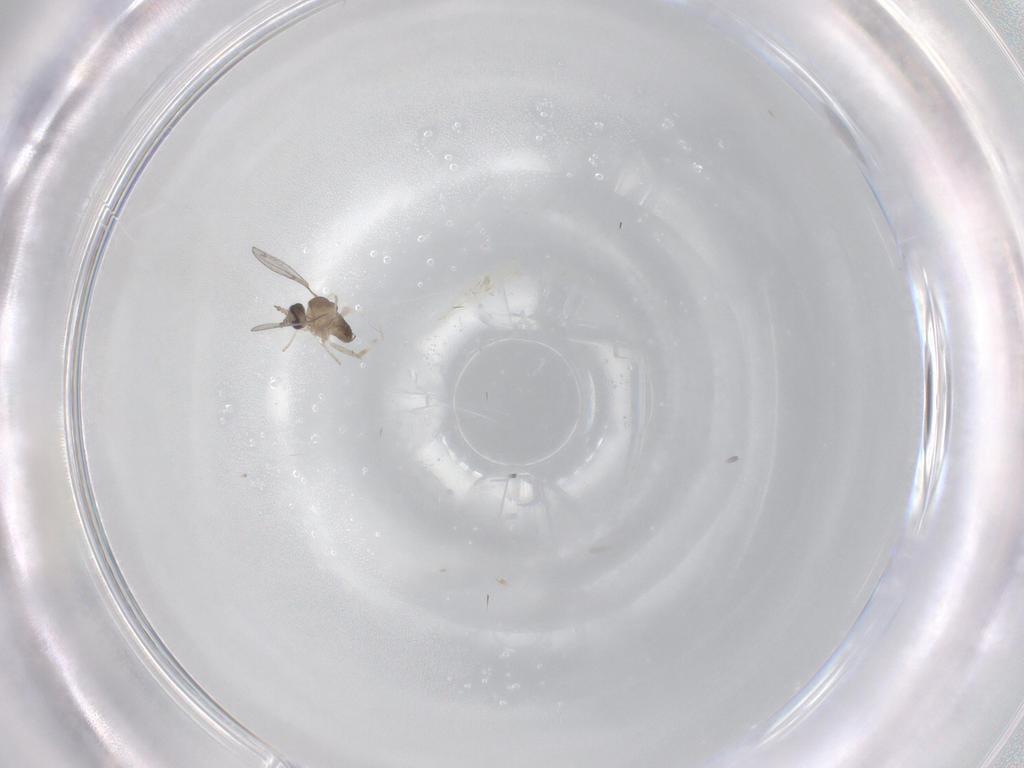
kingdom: Animalia
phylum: Arthropoda
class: Insecta
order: Diptera
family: Cecidomyiidae
